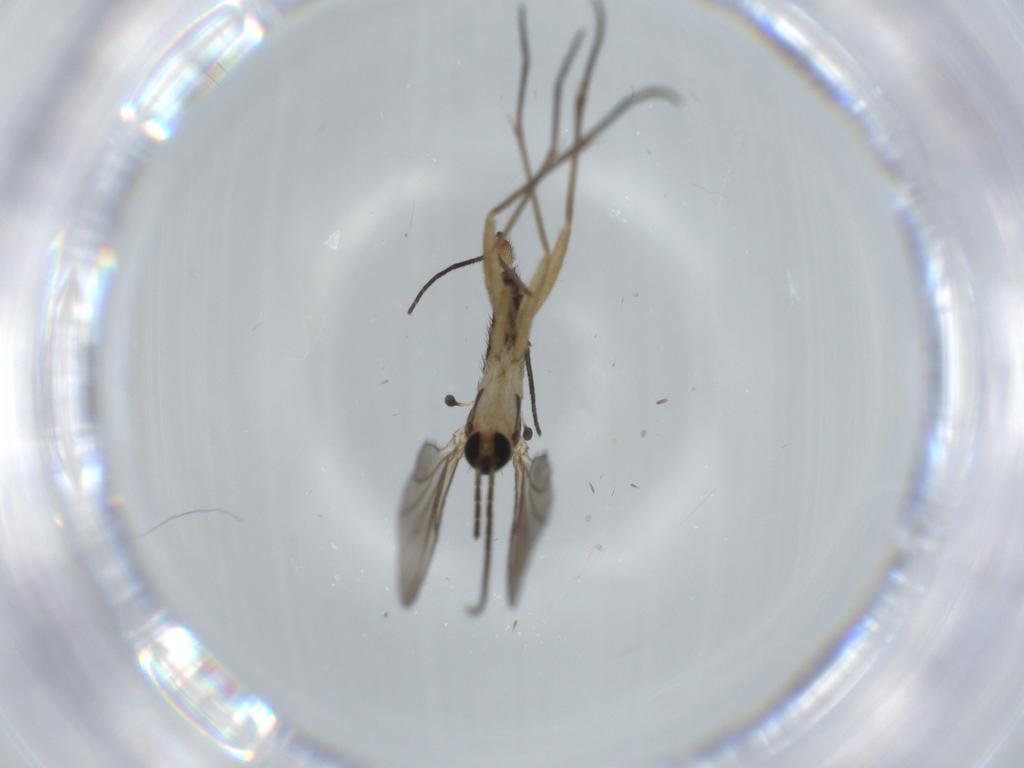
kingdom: Animalia
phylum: Arthropoda
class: Insecta
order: Diptera
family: Sciaridae
